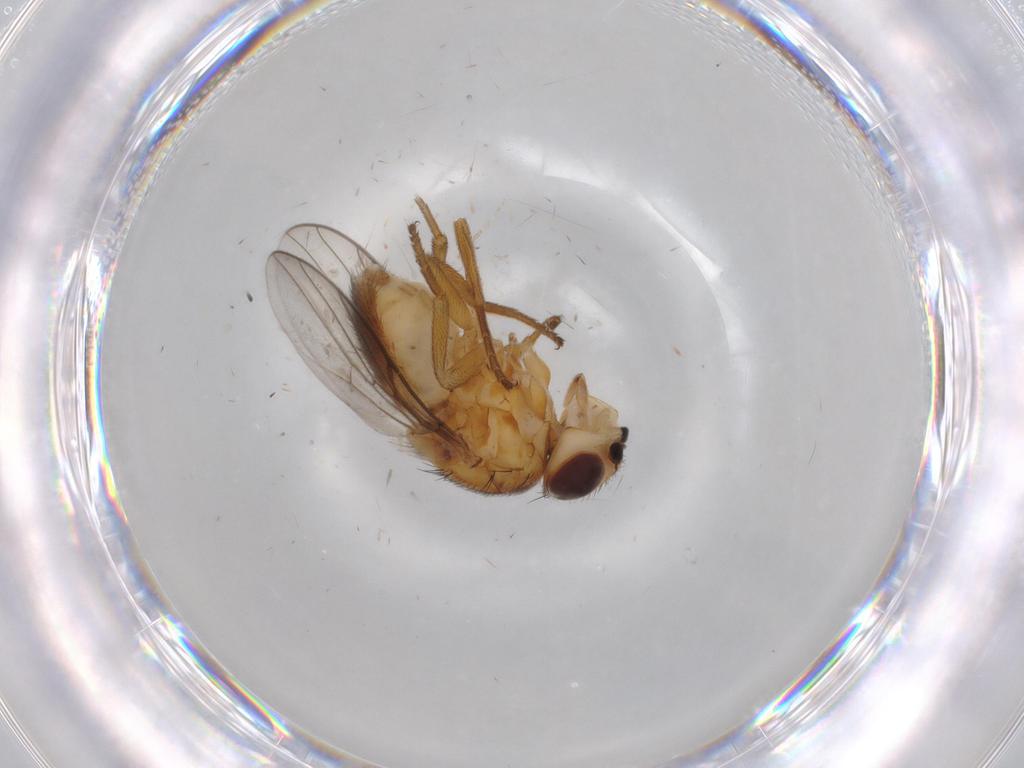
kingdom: Animalia
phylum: Arthropoda
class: Insecta
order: Diptera
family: Chloropidae
